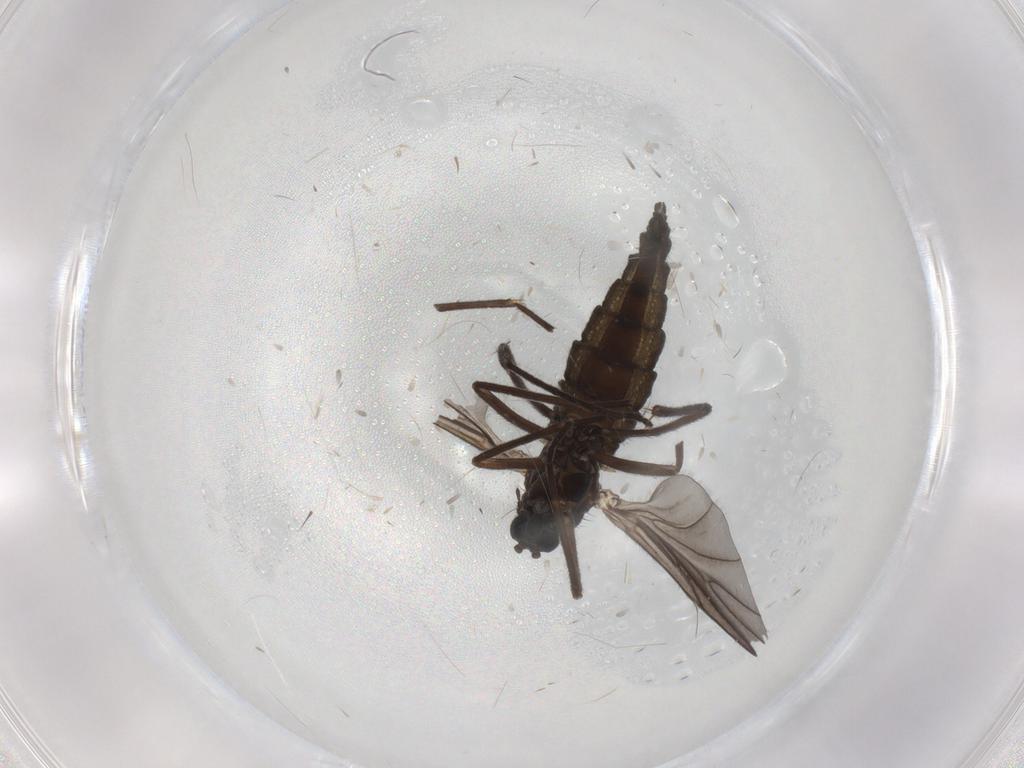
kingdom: Animalia
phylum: Arthropoda
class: Insecta
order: Diptera
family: Sciaridae
